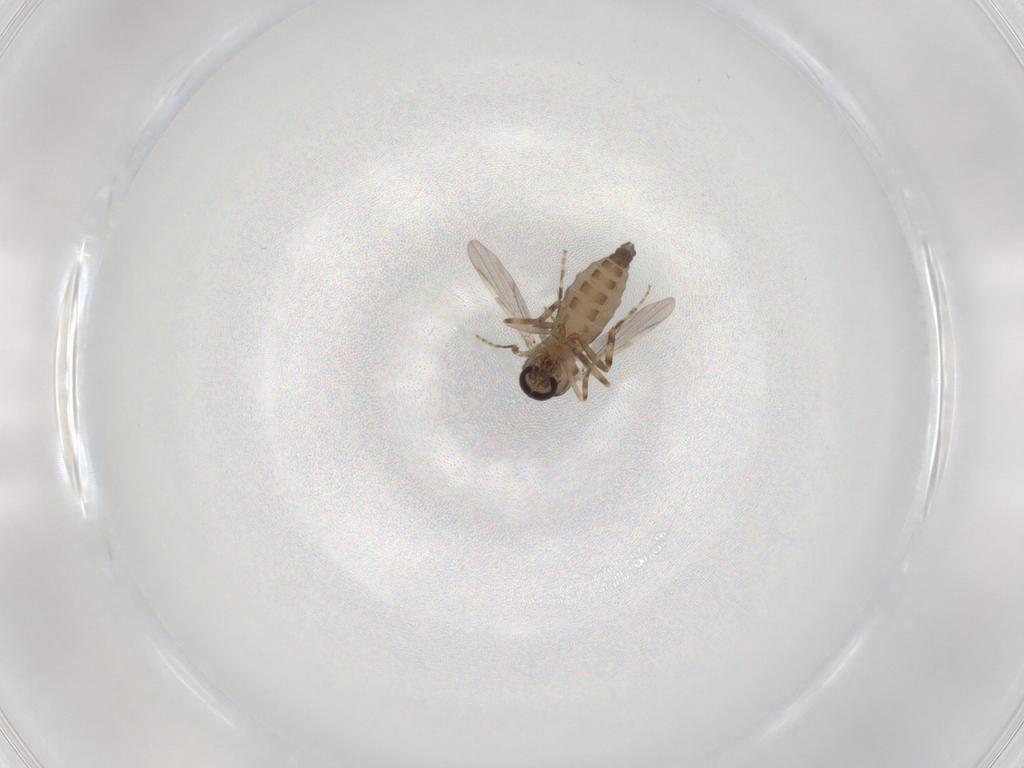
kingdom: Animalia
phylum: Arthropoda
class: Insecta
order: Diptera
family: Ceratopogonidae
